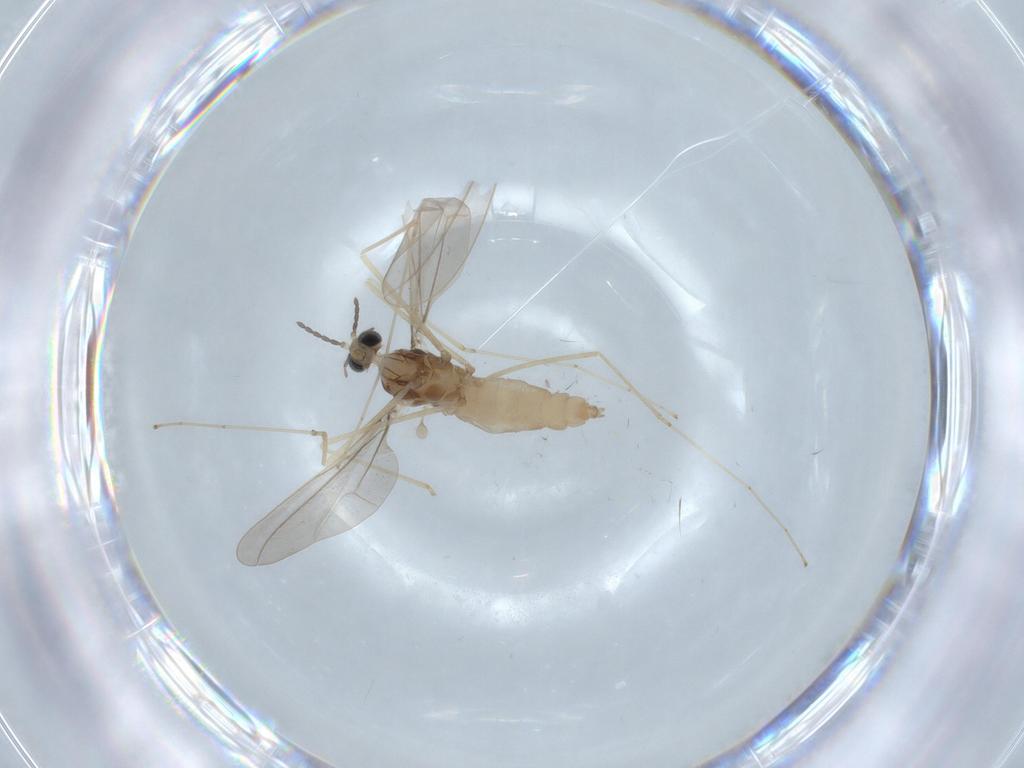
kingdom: Animalia
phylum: Arthropoda
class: Insecta
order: Diptera
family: Cecidomyiidae
